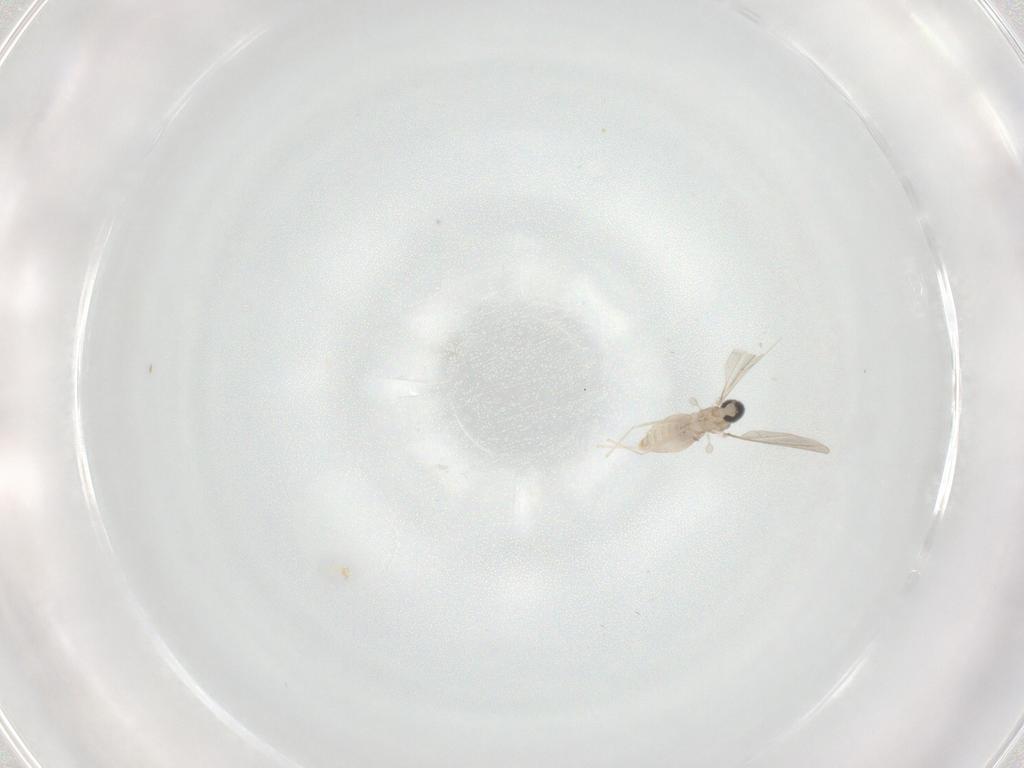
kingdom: Animalia
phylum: Arthropoda
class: Insecta
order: Diptera
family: Cecidomyiidae
